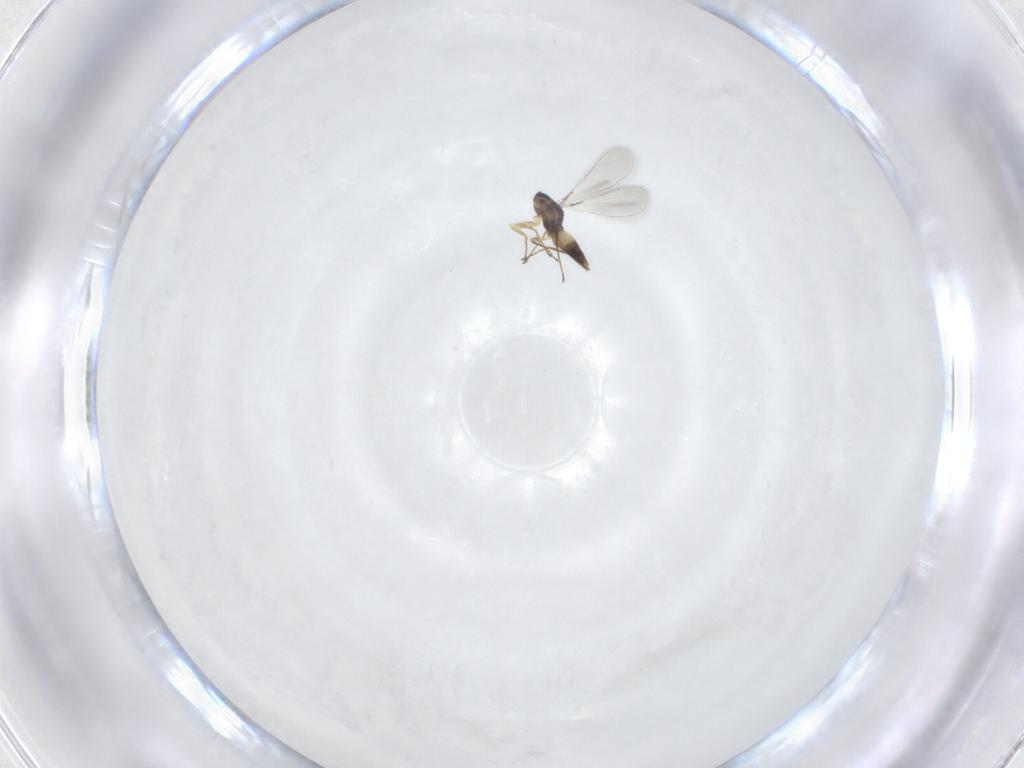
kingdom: Animalia
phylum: Arthropoda
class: Insecta
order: Hymenoptera
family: Mymaridae
